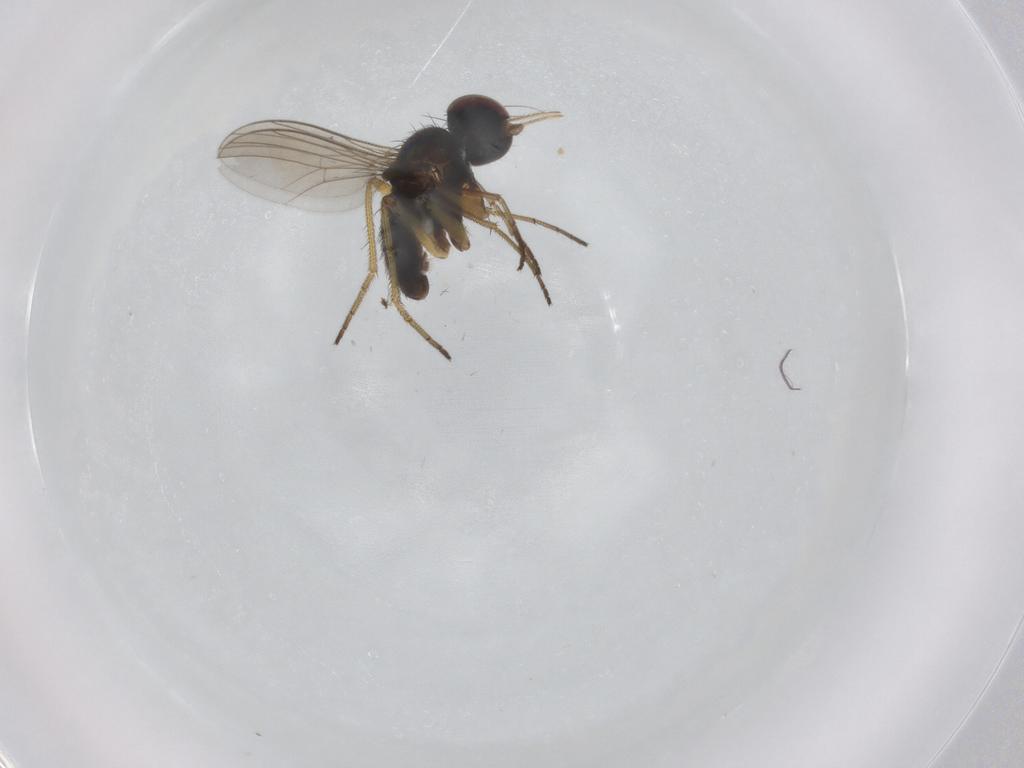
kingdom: Animalia
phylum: Arthropoda
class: Insecta
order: Diptera
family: Dolichopodidae
